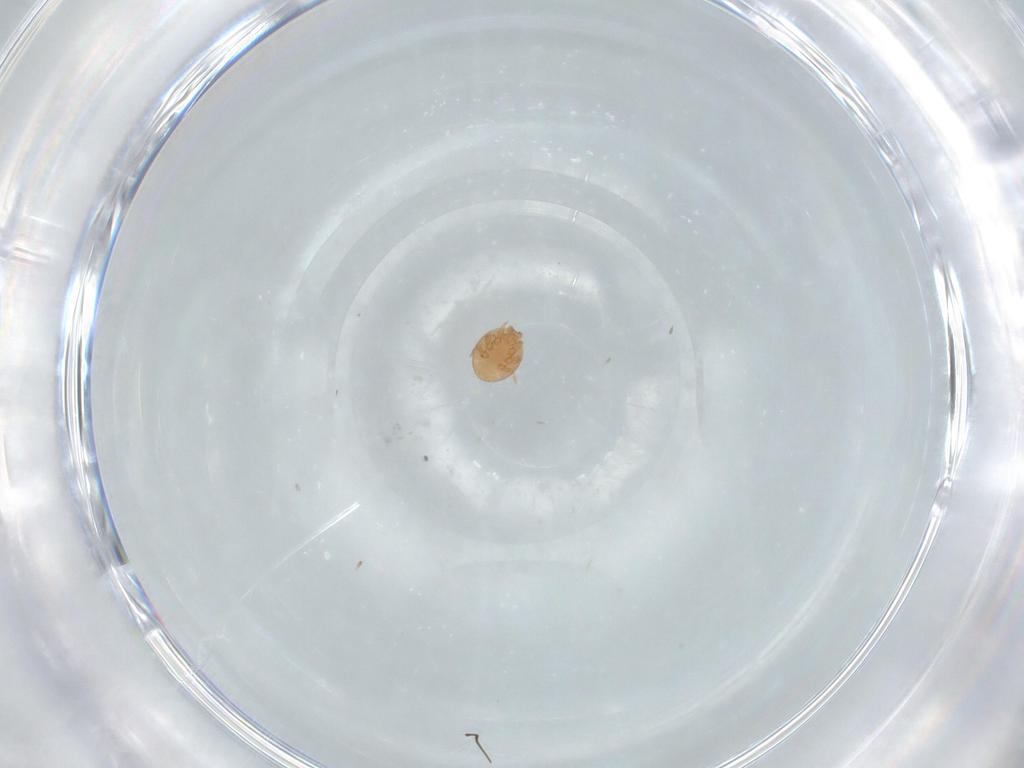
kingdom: Animalia
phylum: Arthropoda
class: Arachnida
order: Mesostigmata
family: Trematuridae
